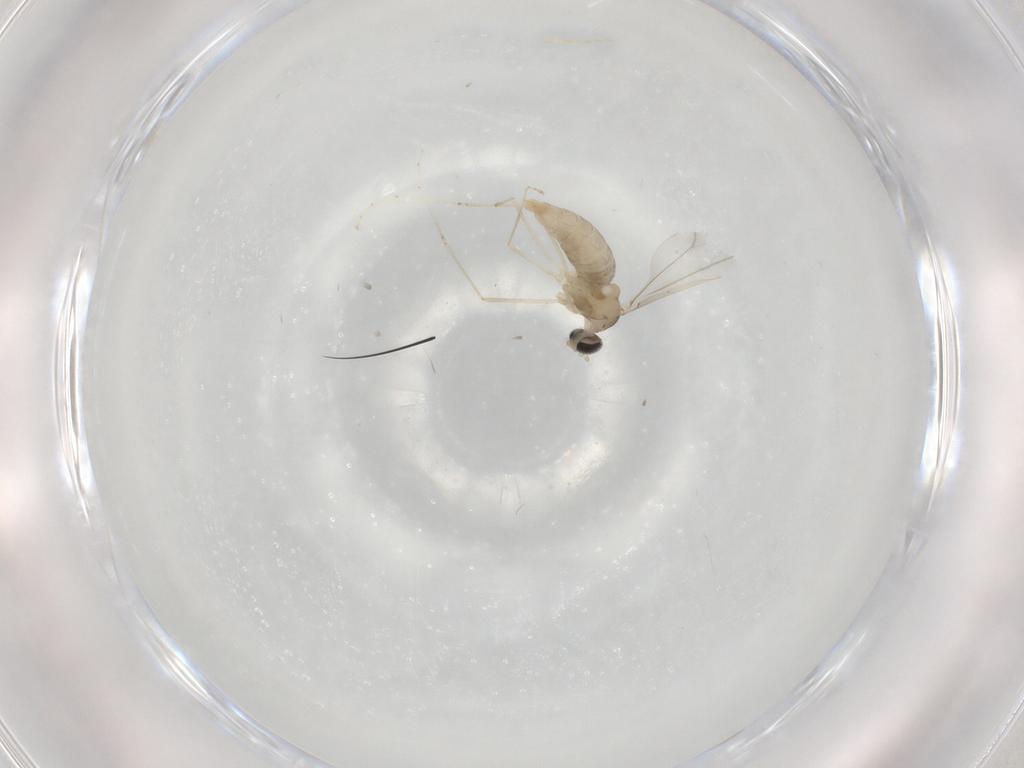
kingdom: Animalia
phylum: Arthropoda
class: Insecta
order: Diptera
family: Cecidomyiidae
